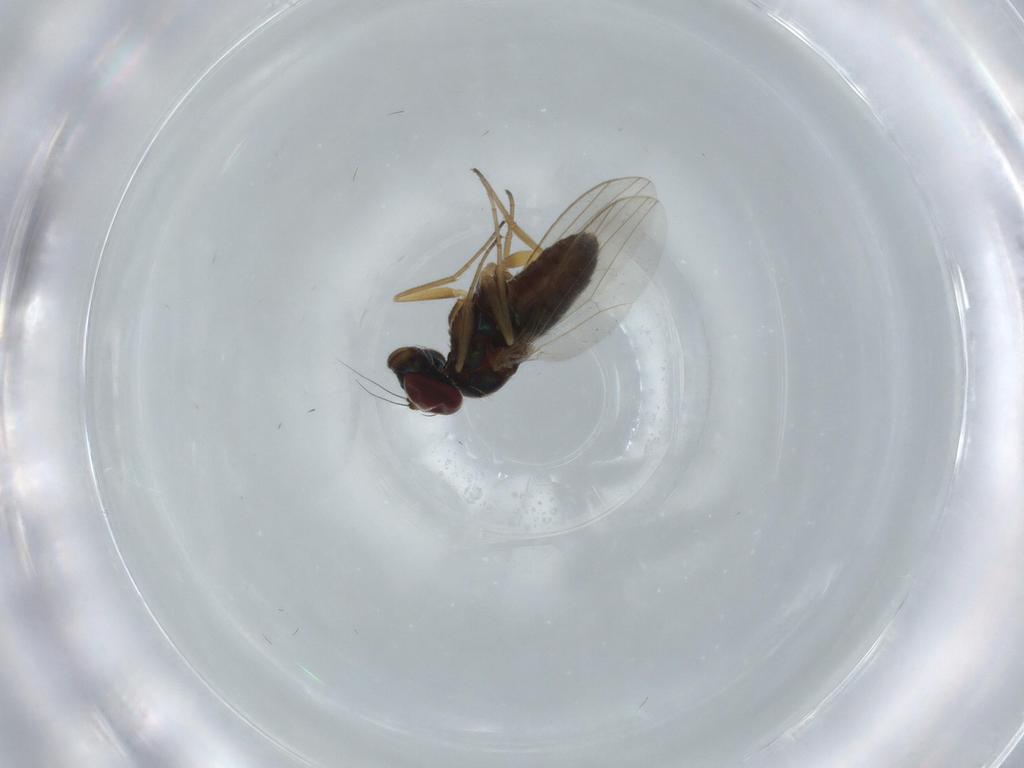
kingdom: Animalia
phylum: Arthropoda
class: Insecta
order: Diptera
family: Dolichopodidae
